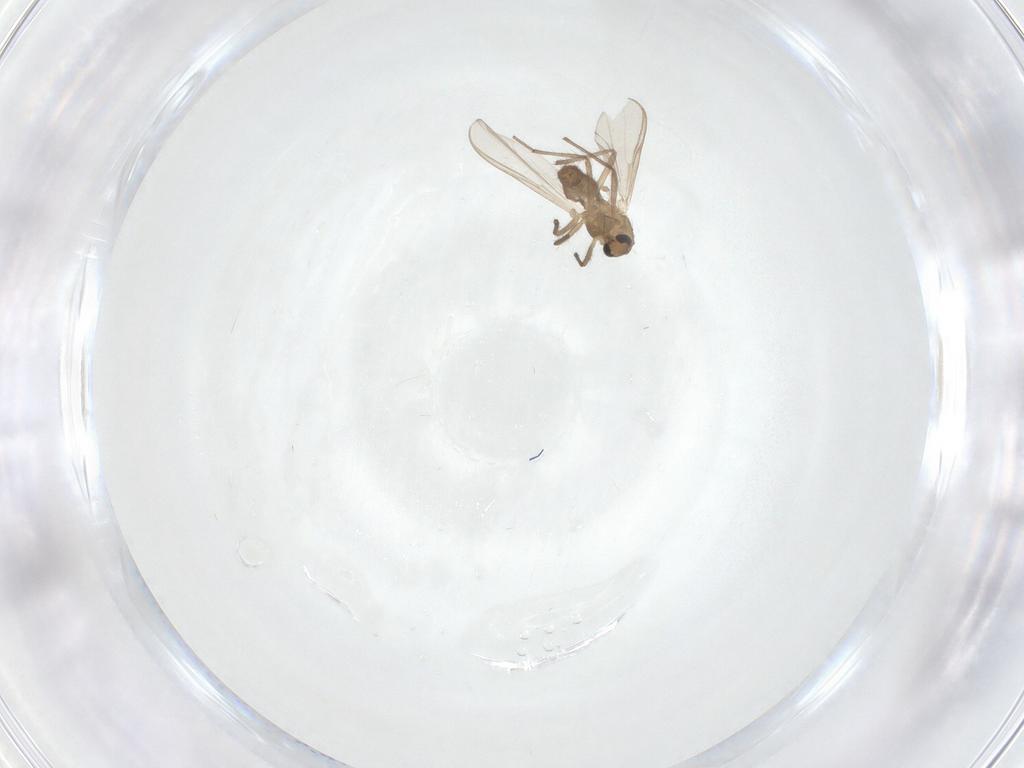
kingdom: Animalia
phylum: Arthropoda
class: Insecta
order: Diptera
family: Chironomidae
